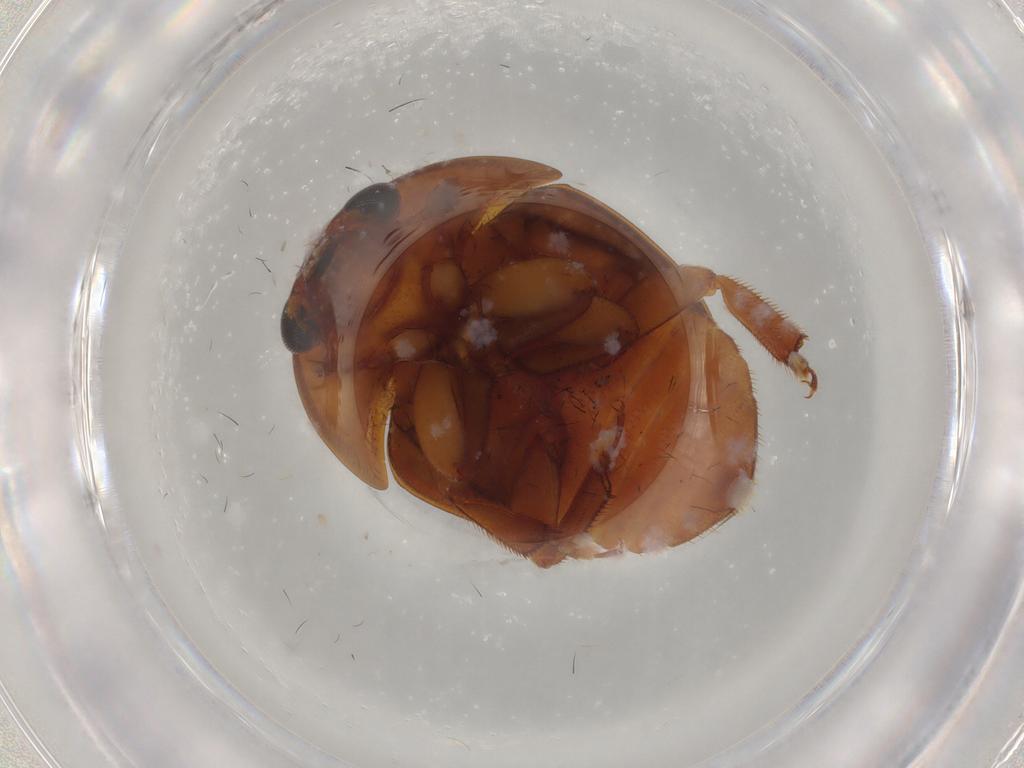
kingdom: Animalia
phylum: Arthropoda
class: Insecta
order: Coleoptera
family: Nitidulidae
